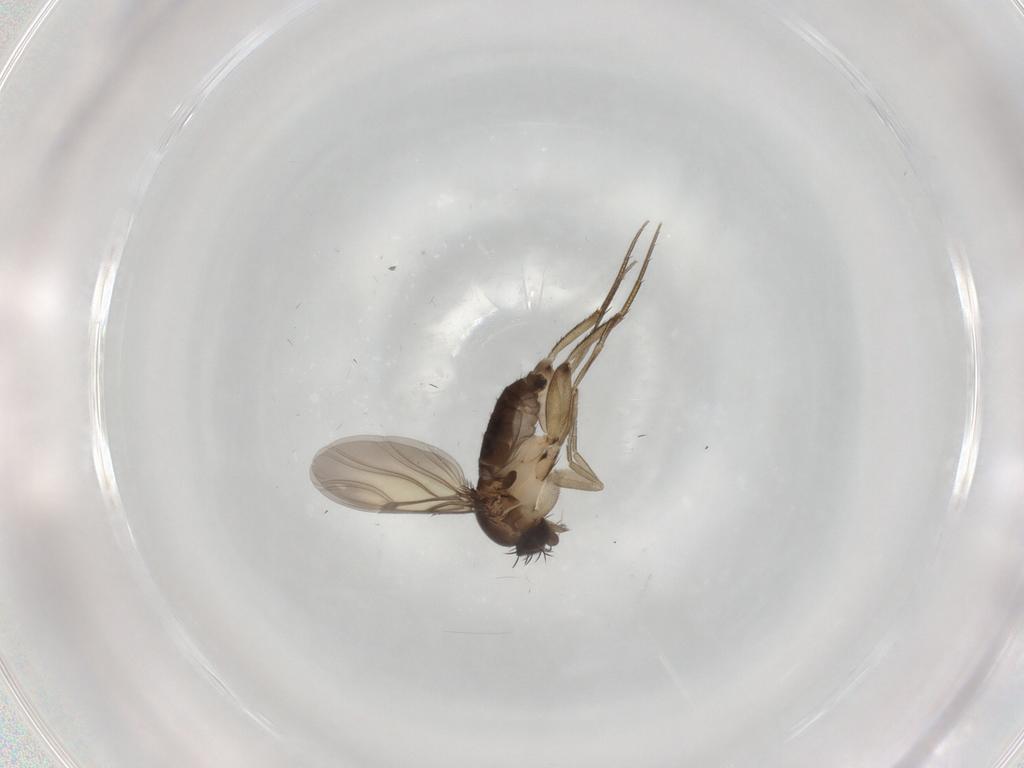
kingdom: Animalia
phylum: Arthropoda
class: Insecta
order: Diptera
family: Phoridae
